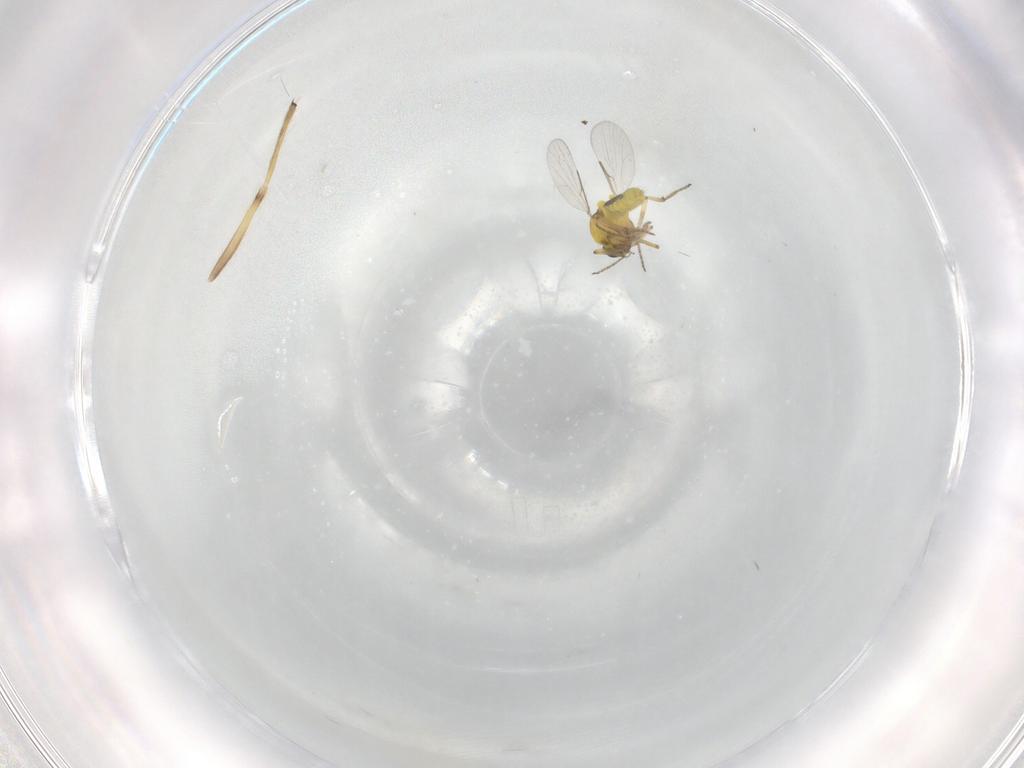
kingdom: Animalia
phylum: Arthropoda
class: Insecta
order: Diptera
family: Chironomidae
